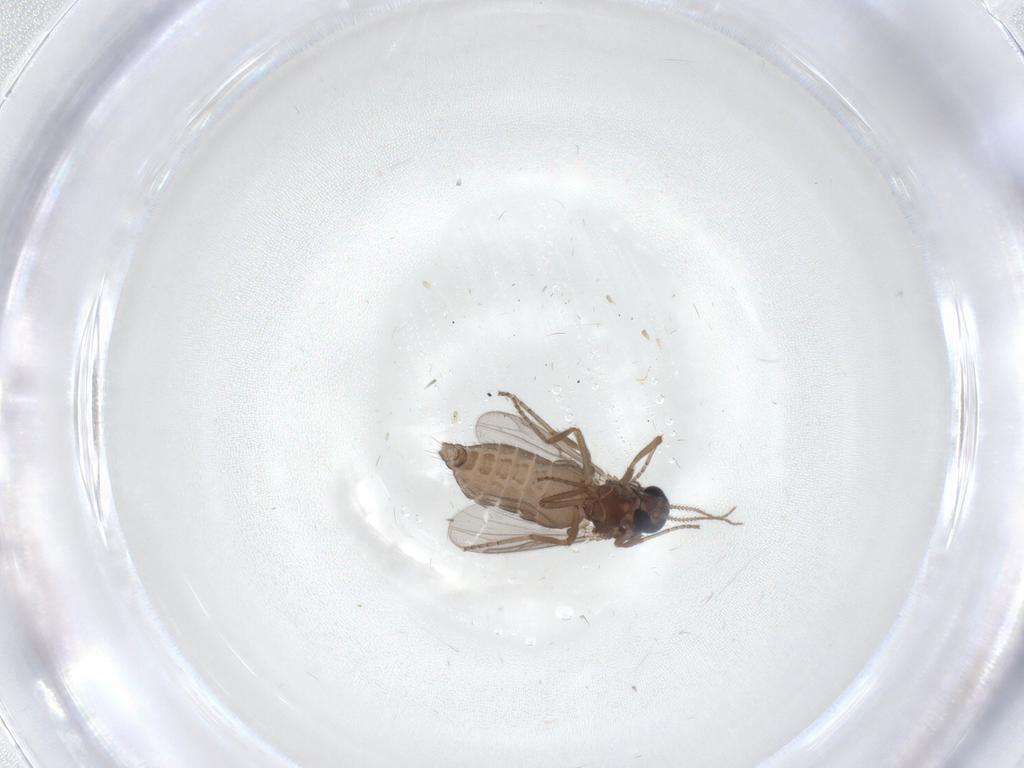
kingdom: Animalia
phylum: Arthropoda
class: Insecta
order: Diptera
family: Ceratopogonidae
